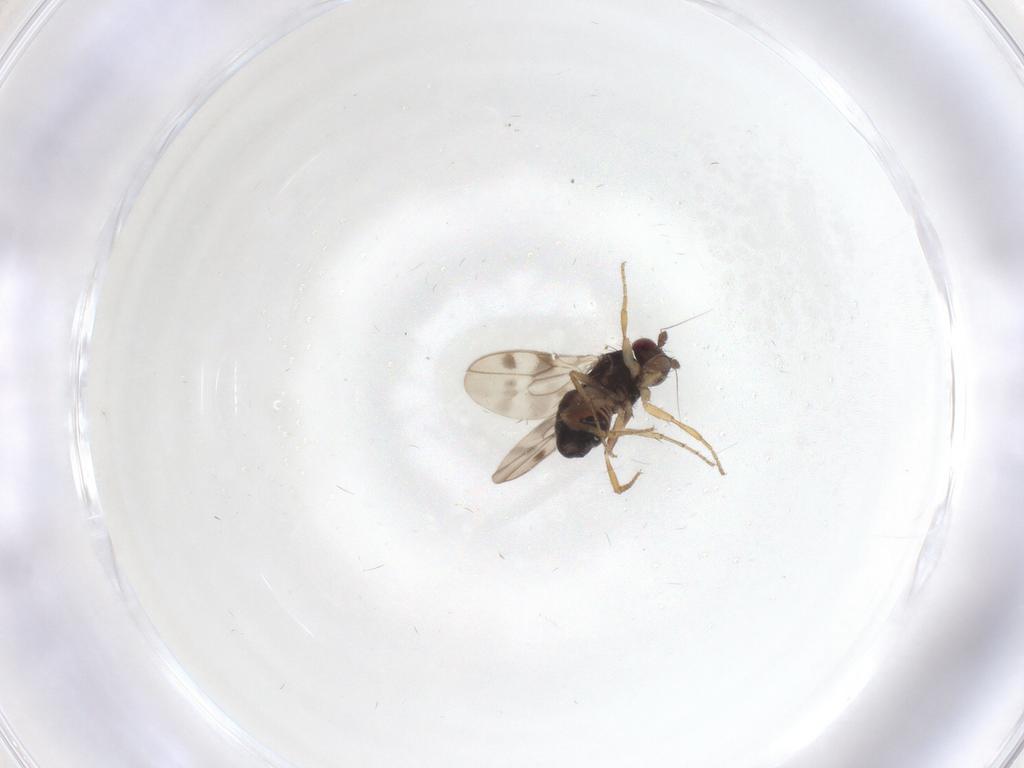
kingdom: Animalia
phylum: Arthropoda
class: Insecta
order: Diptera
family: Sphaeroceridae
